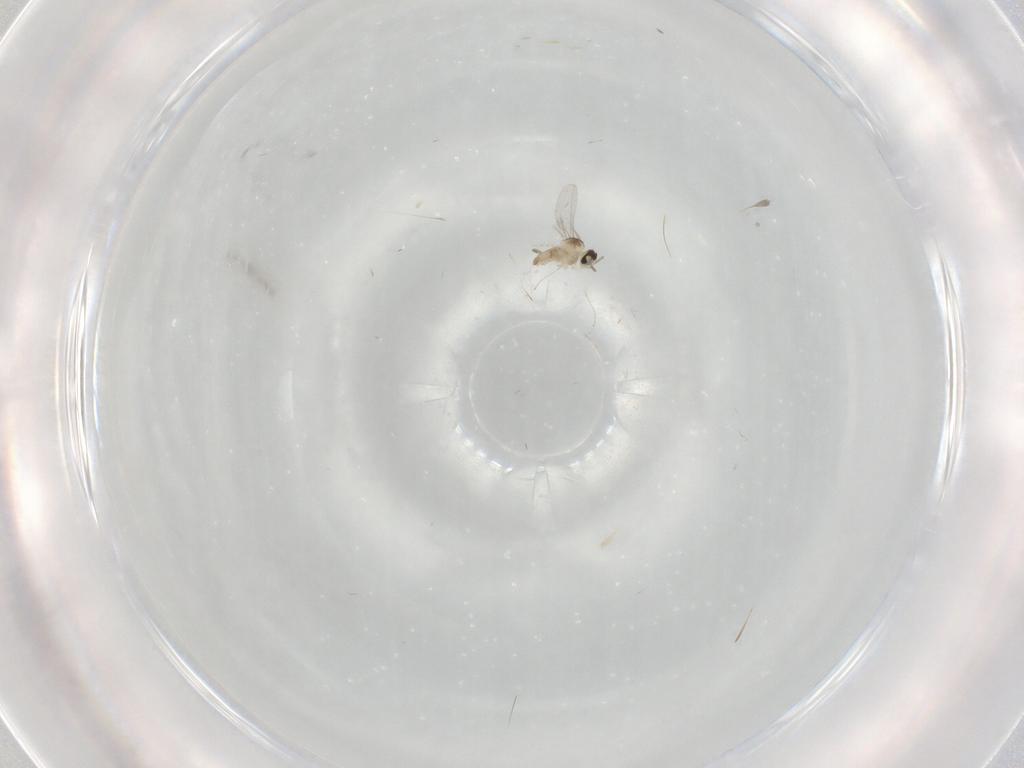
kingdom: Animalia
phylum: Arthropoda
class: Insecta
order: Diptera
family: Cecidomyiidae
